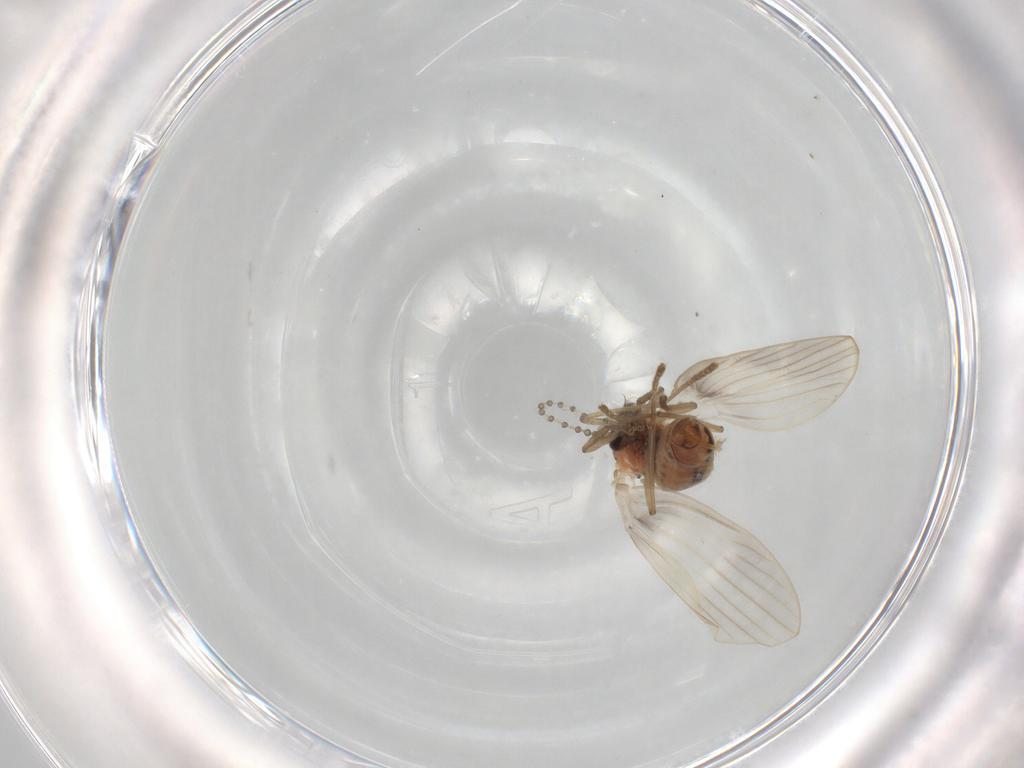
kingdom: Animalia
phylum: Arthropoda
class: Insecta
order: Diptera
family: Psychodidae
